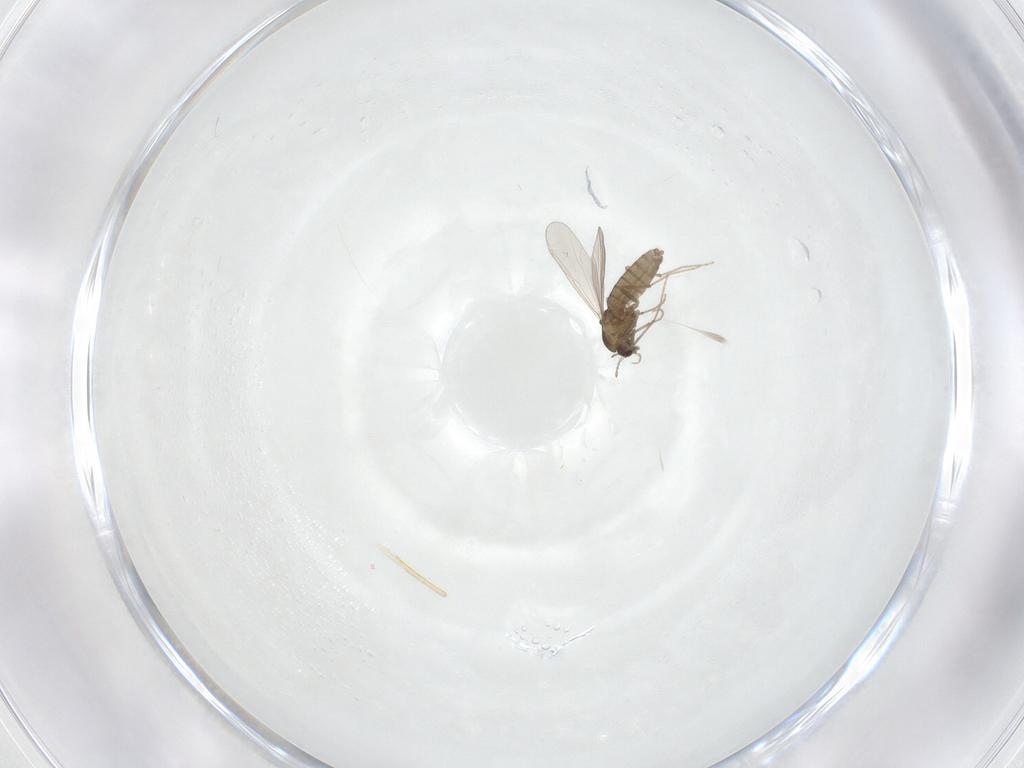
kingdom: Animalia
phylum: Arthropoda
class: Insecta
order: Diptera
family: Chironomidae
